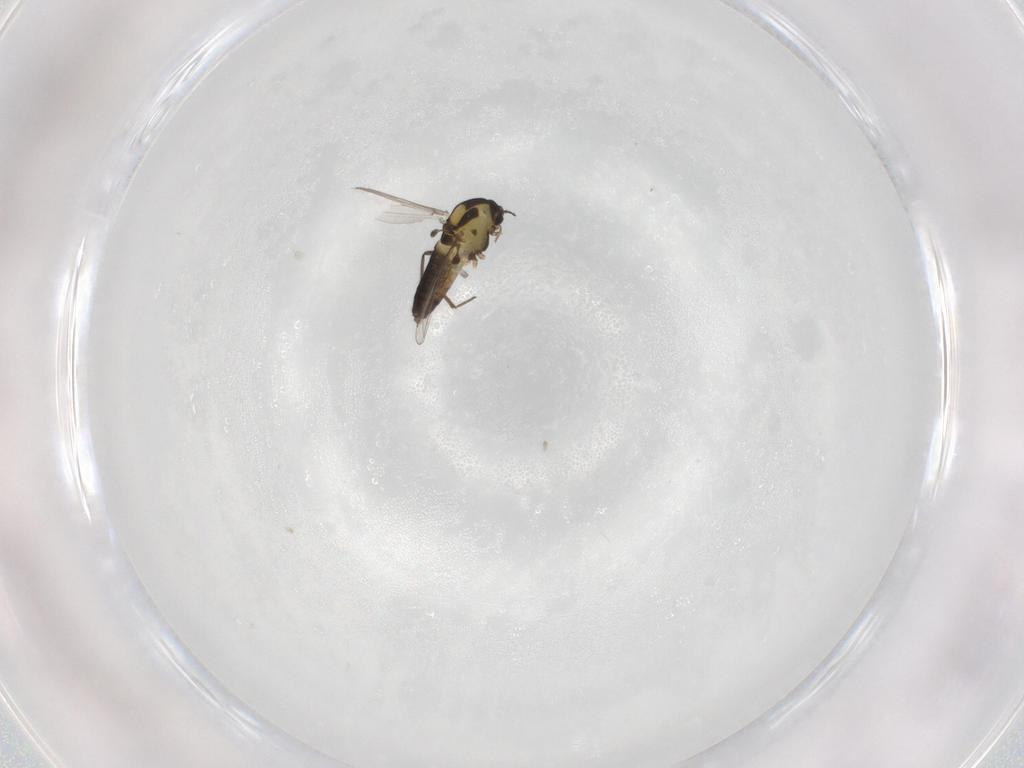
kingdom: Animalia
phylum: Arthropoda
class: Insecta
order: Diptera
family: Chironomidae
